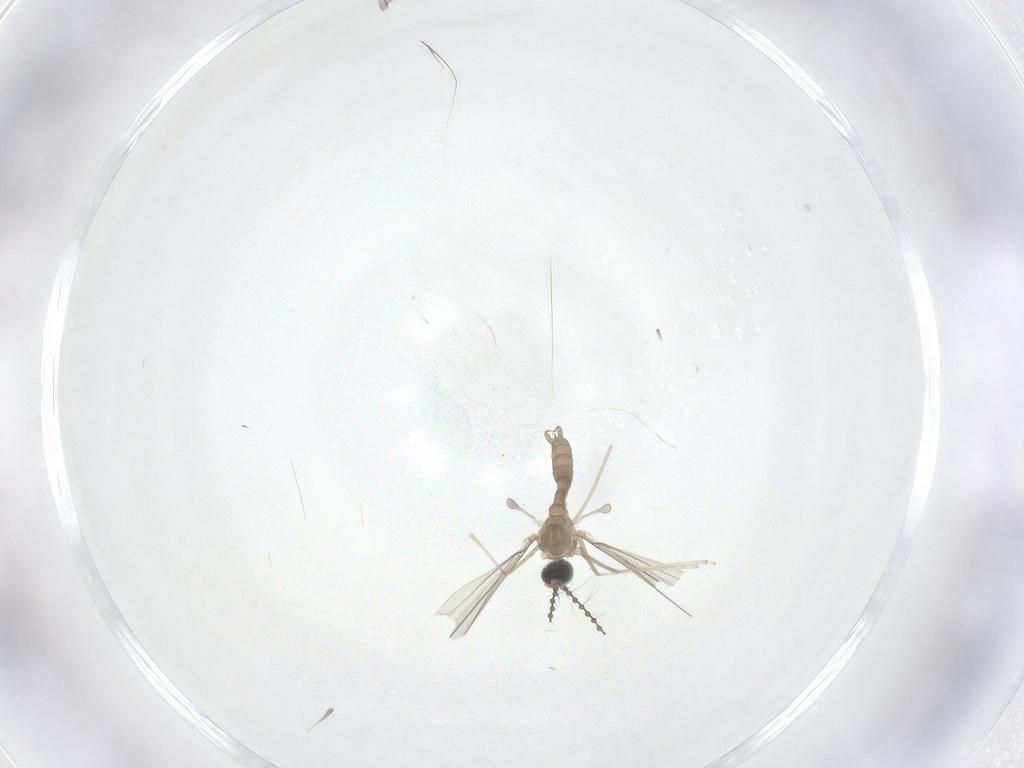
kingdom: Animalia
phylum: Arthropoda
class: Insecta
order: Diptera
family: Cecidomyiidae
